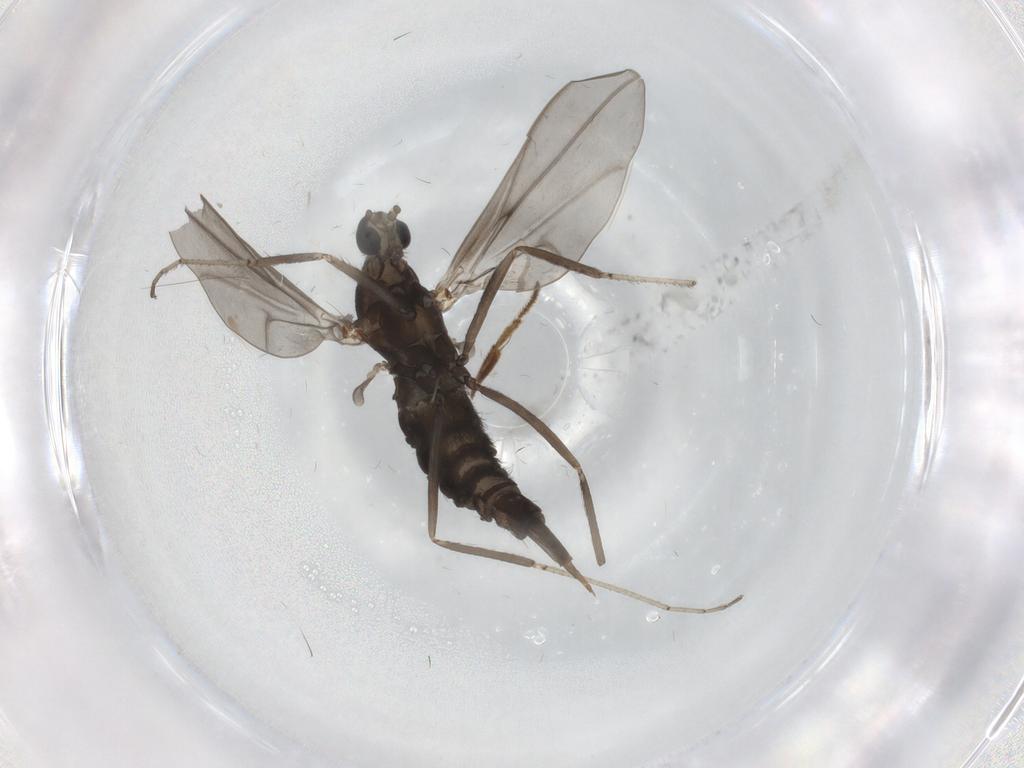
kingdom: Animalia
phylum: Arthropoda
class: Insecta
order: Diptera
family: Cecidomyiidae
